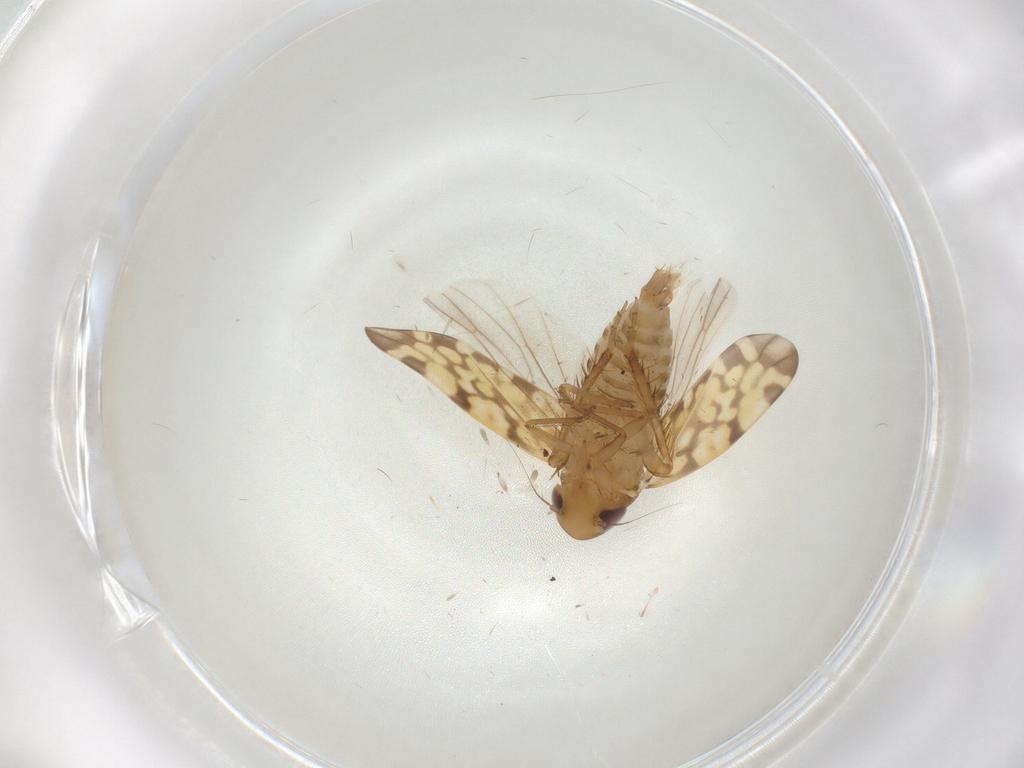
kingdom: Animalia
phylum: Arthropoda
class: Insecta
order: Hemiptera
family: Cicadellidae
